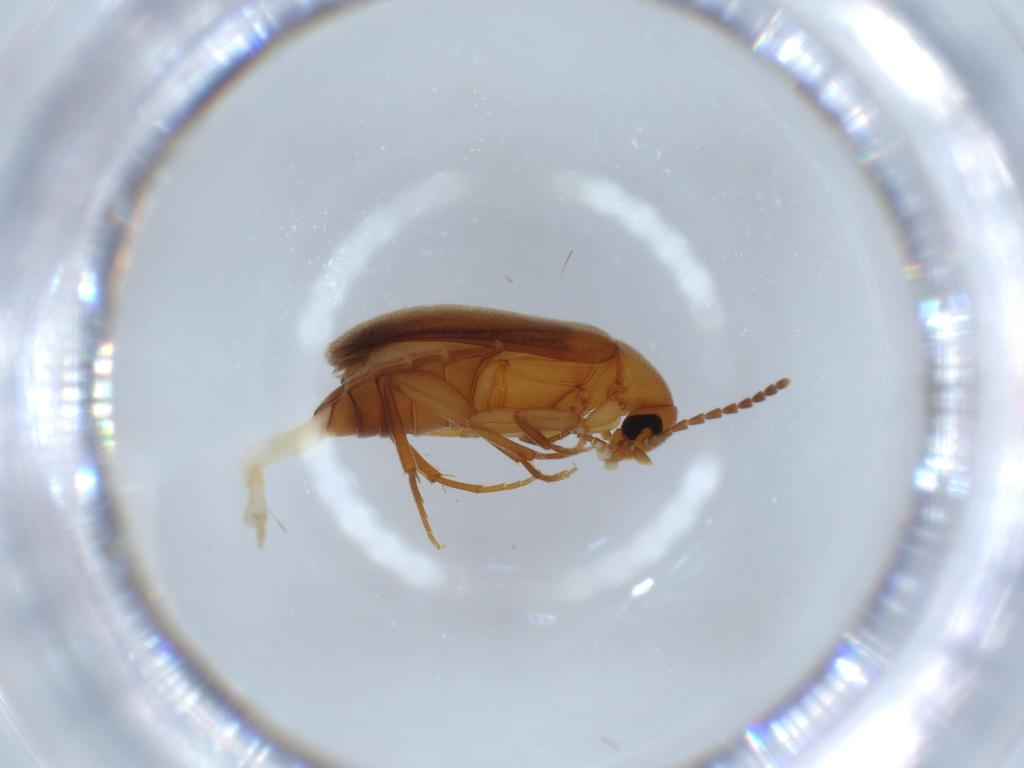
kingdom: Animalia
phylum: Arthropoda
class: Insecta
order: Coleoptera
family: Scraptiidae
